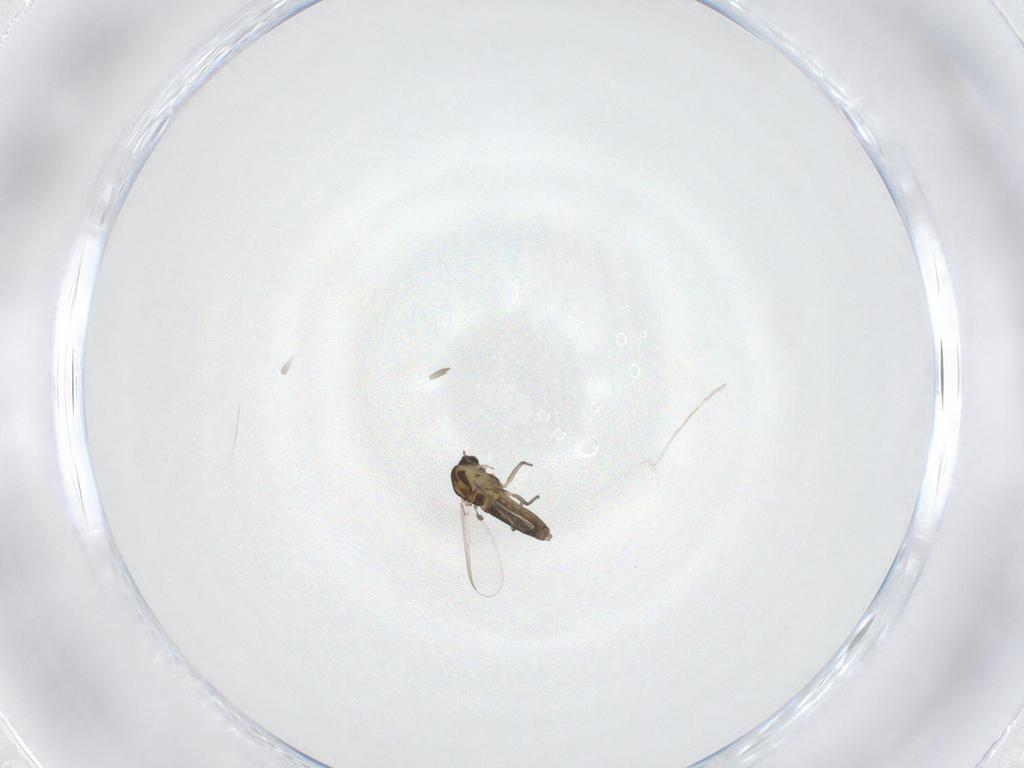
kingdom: Animalia
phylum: Arthropoda
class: Insecta
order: Diptera
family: Chironomidae
